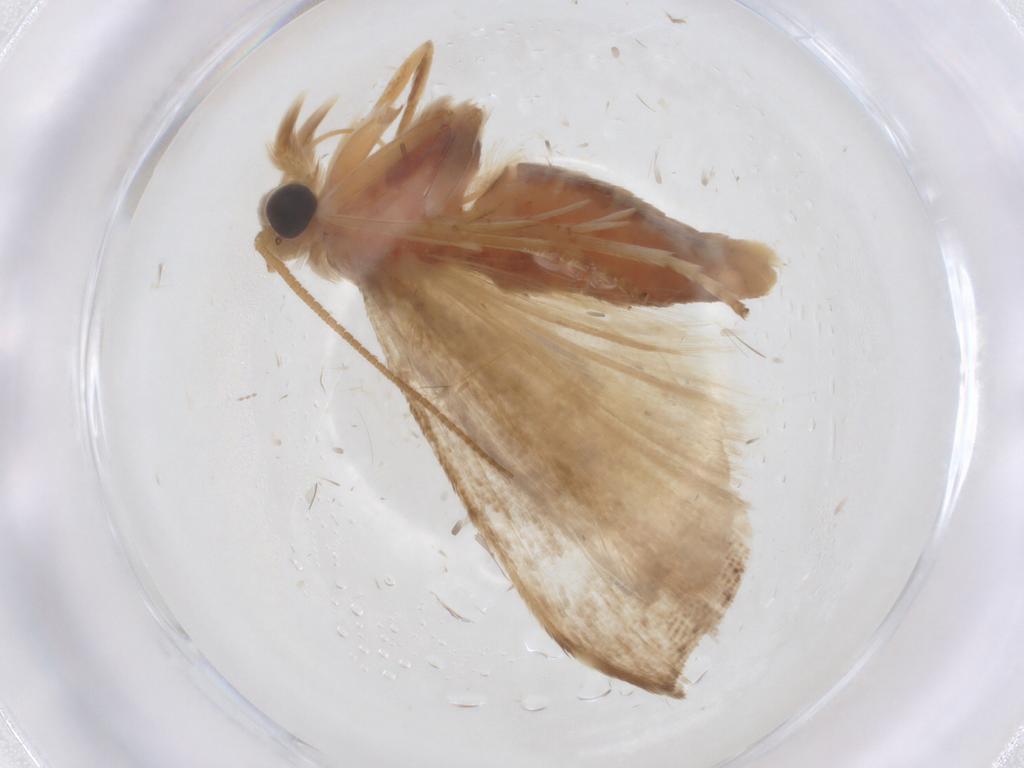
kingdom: Animalia
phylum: Arthropoda
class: Insecta
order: Lepidoptera
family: Pyralidae
